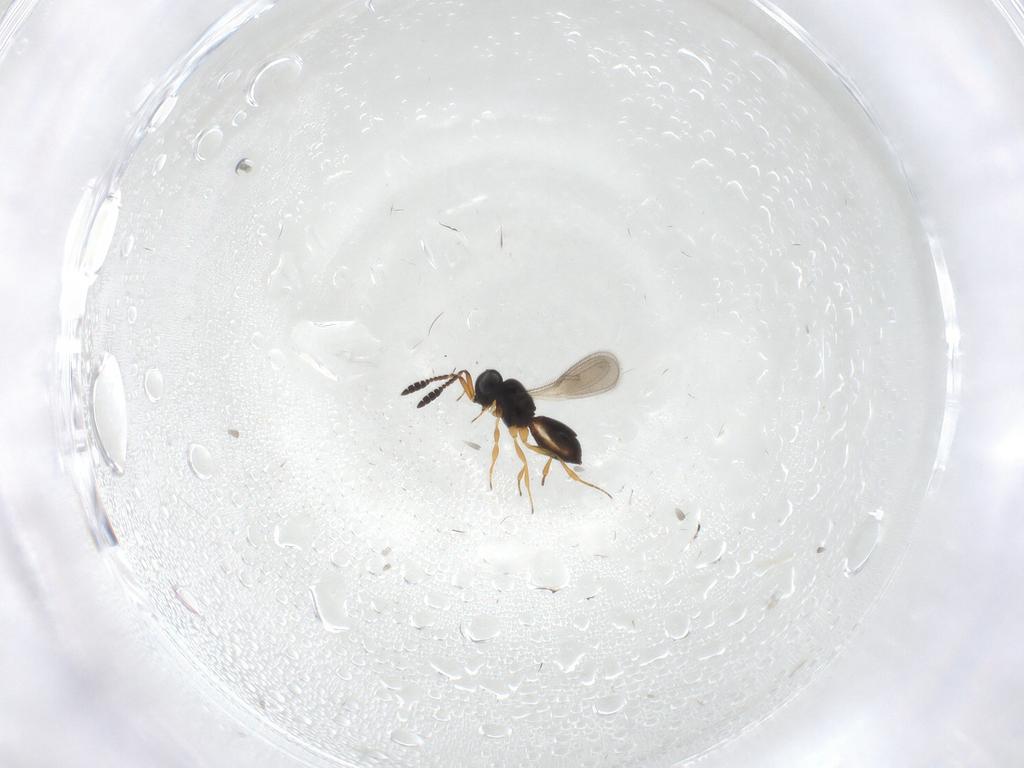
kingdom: Animalia
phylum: Arthropoda
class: Insecta
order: Hymenoptera
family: Scelionidae
